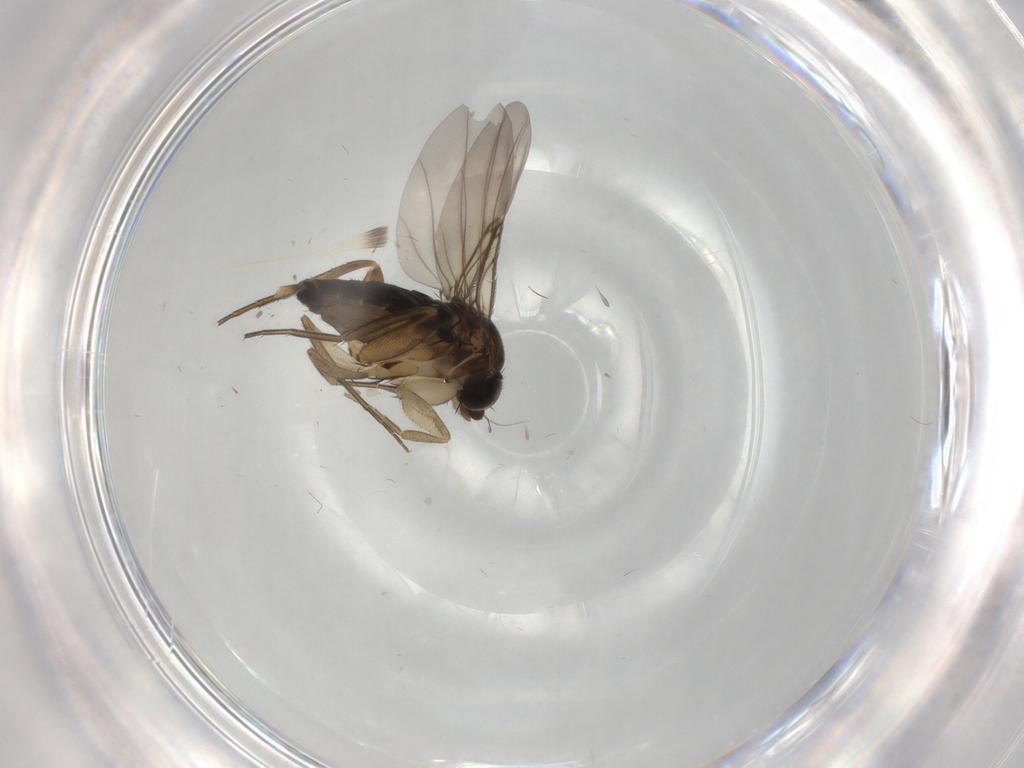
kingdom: Animalia
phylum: Arthropoda
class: Insecta
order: Diptera
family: Phoridae
